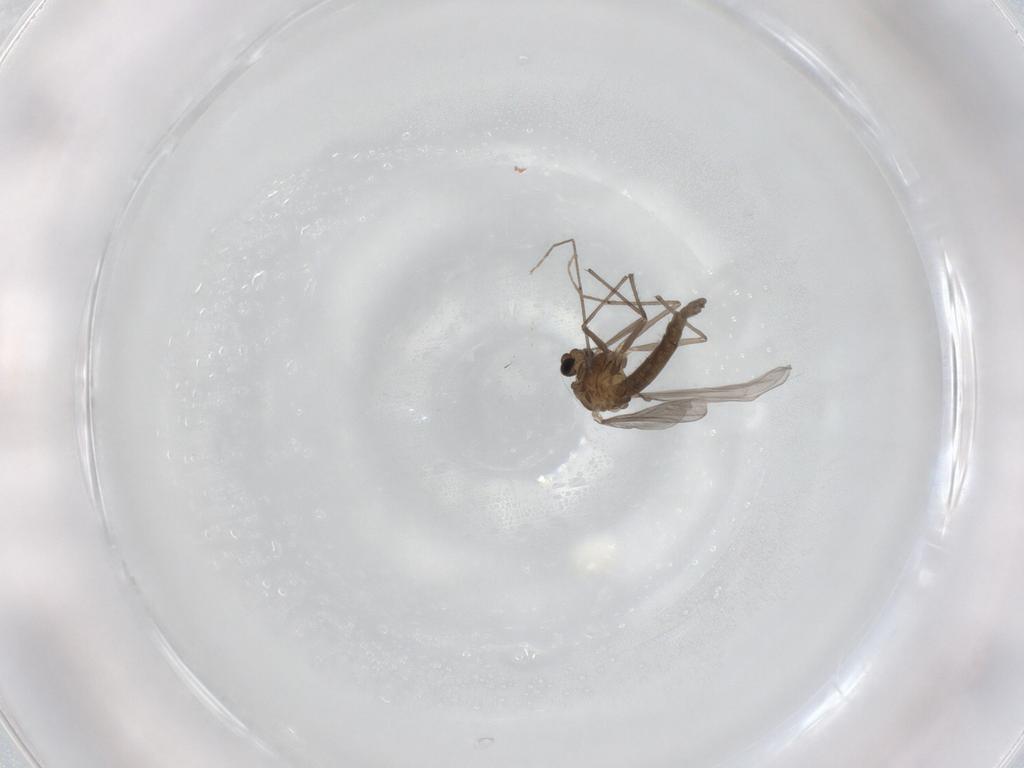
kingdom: Animalia
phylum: Arthropoda
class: Insecta
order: Diptera
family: Chironomidae
